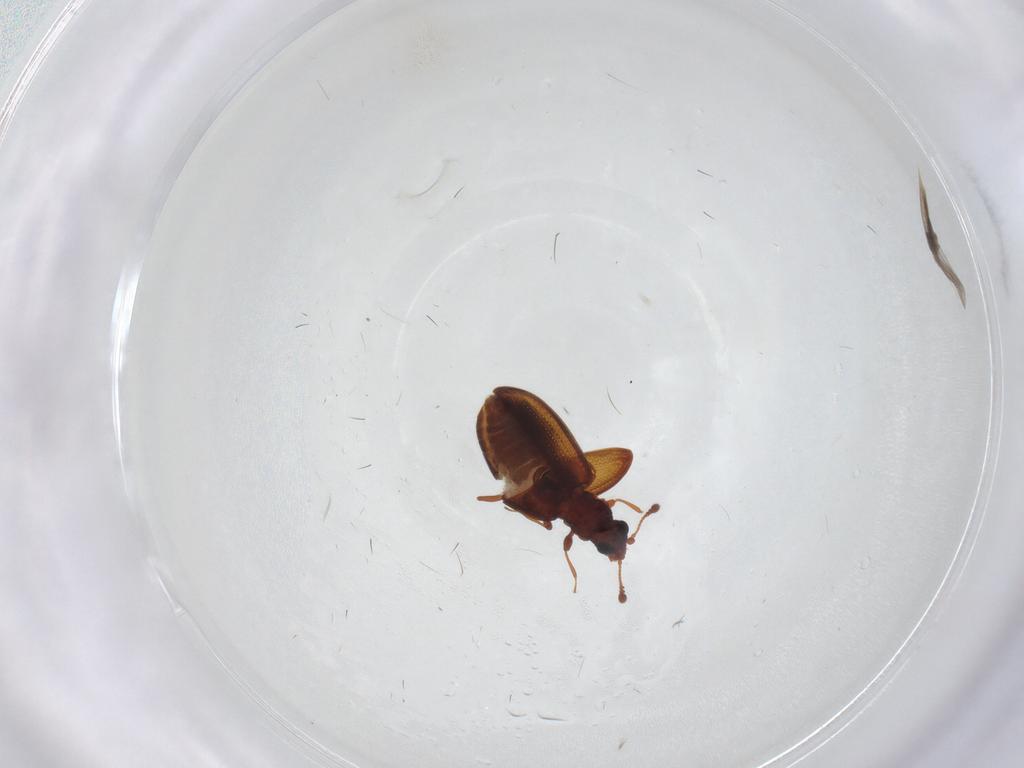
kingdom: Animalia
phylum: Arthropoda
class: Insecta
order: Coleoptera
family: Latridiidae
